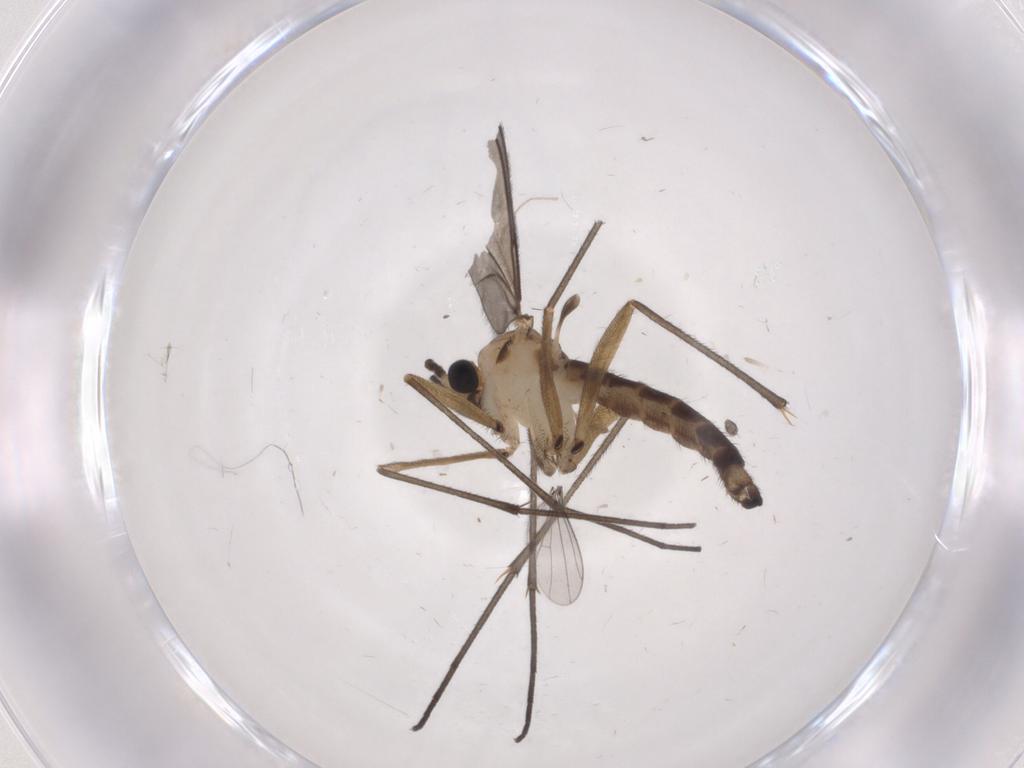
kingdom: Animalia
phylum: Arthropoda
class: Insecta
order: Diptera
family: Sciaridae
